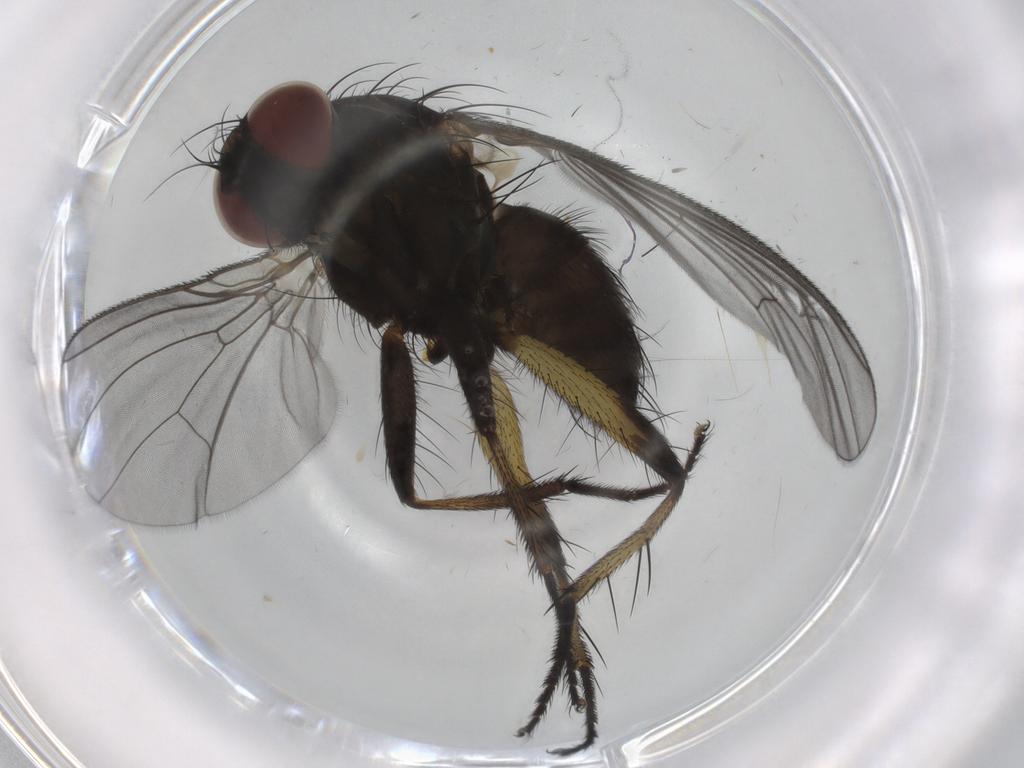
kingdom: Animalia
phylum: Arthropoda
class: Insecta
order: Diptera
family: Muscidae
